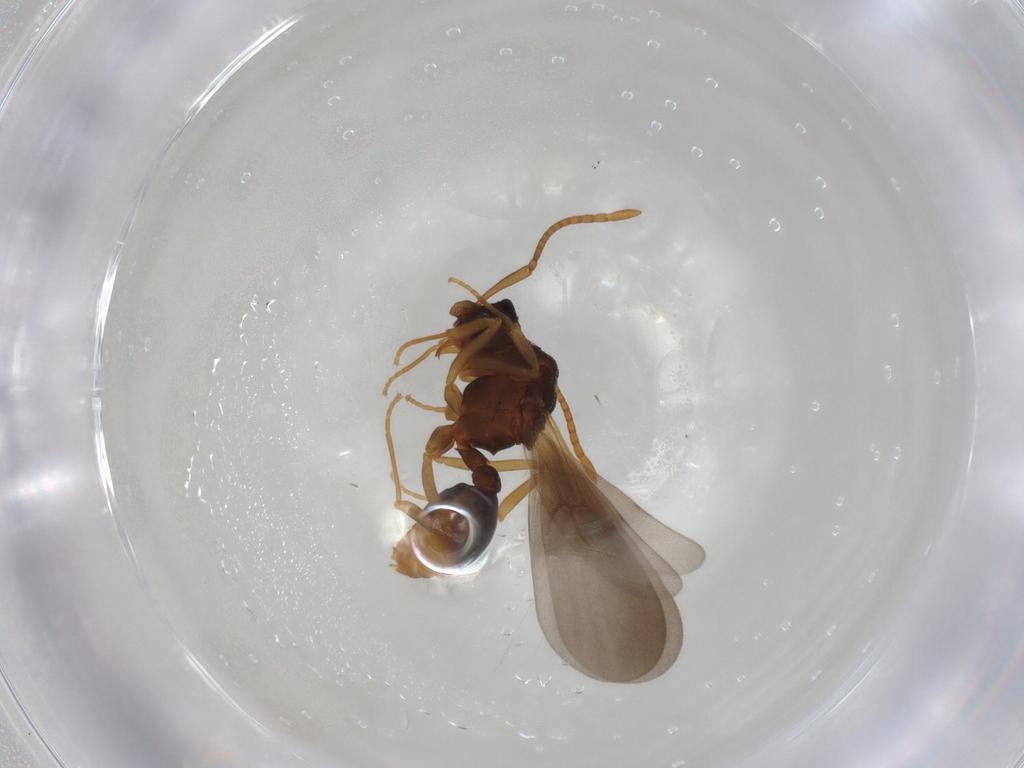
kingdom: Animalia
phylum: Arthropoda
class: Insecta
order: Hymenoptera
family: Formicidae
